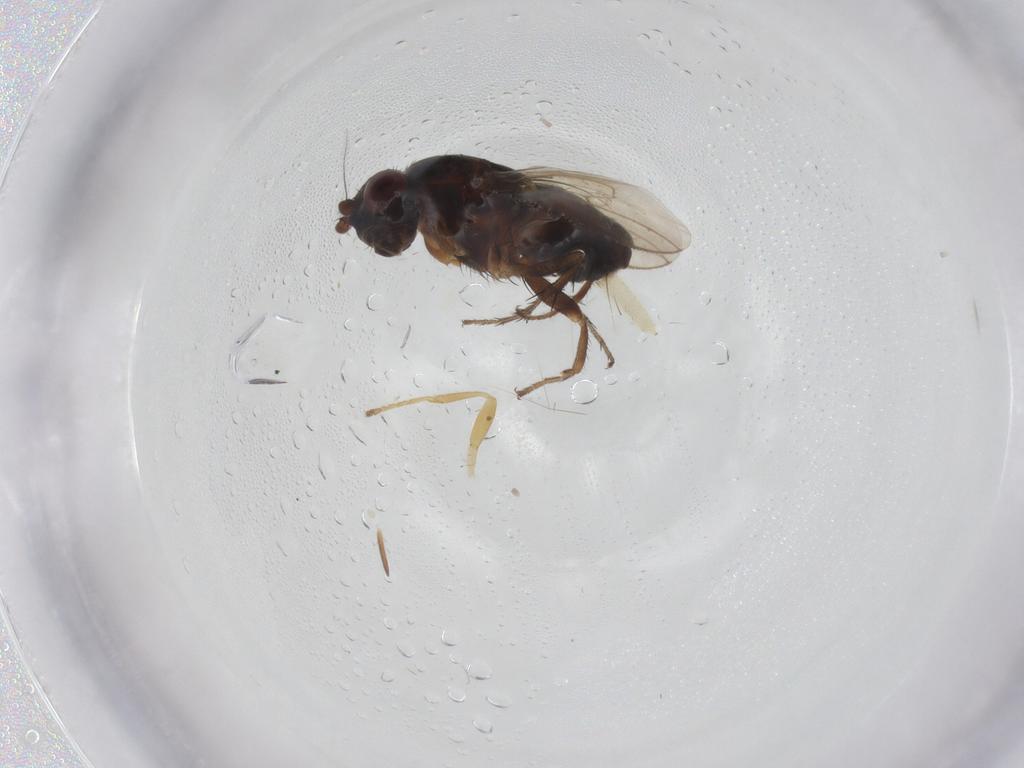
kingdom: Animalia
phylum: Arthropoda
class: Insecta
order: Diptera
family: Sphaeroceridae
